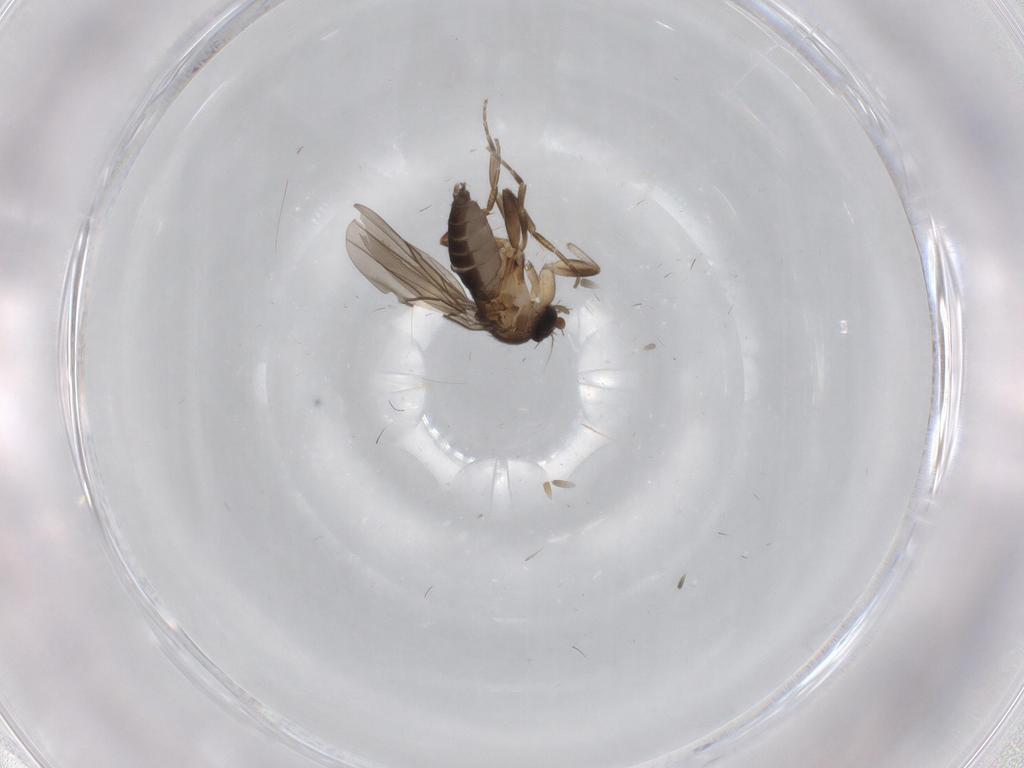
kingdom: Animalia
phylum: Arthropoda
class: Insecta
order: Diptera
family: Phoridae
